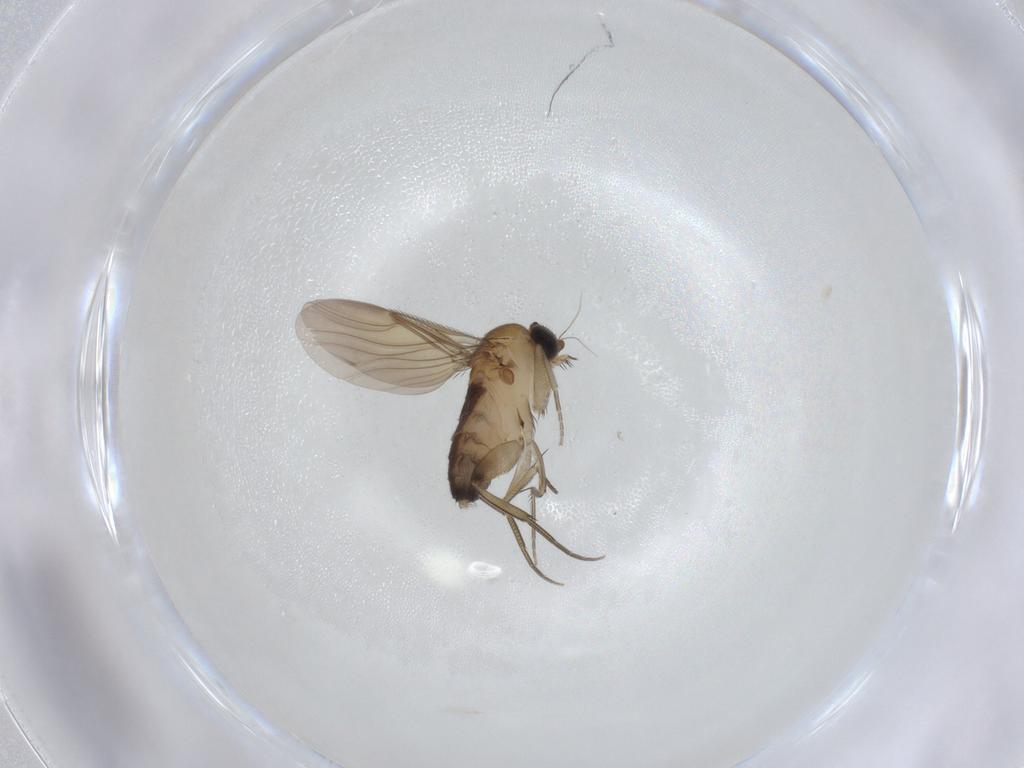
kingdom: Animalia
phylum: Arthropoda
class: Insecta
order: Diptera
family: Phoridae
